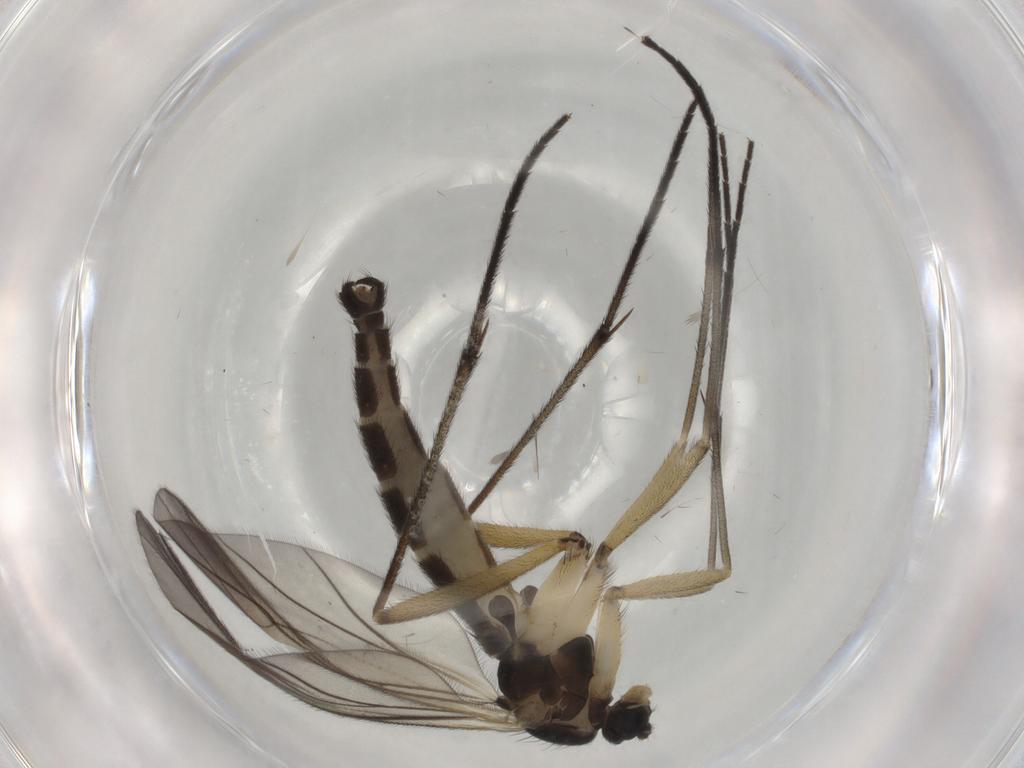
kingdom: Animalia
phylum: Arthropoda
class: Insecta
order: Diptera
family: Sciaridae
